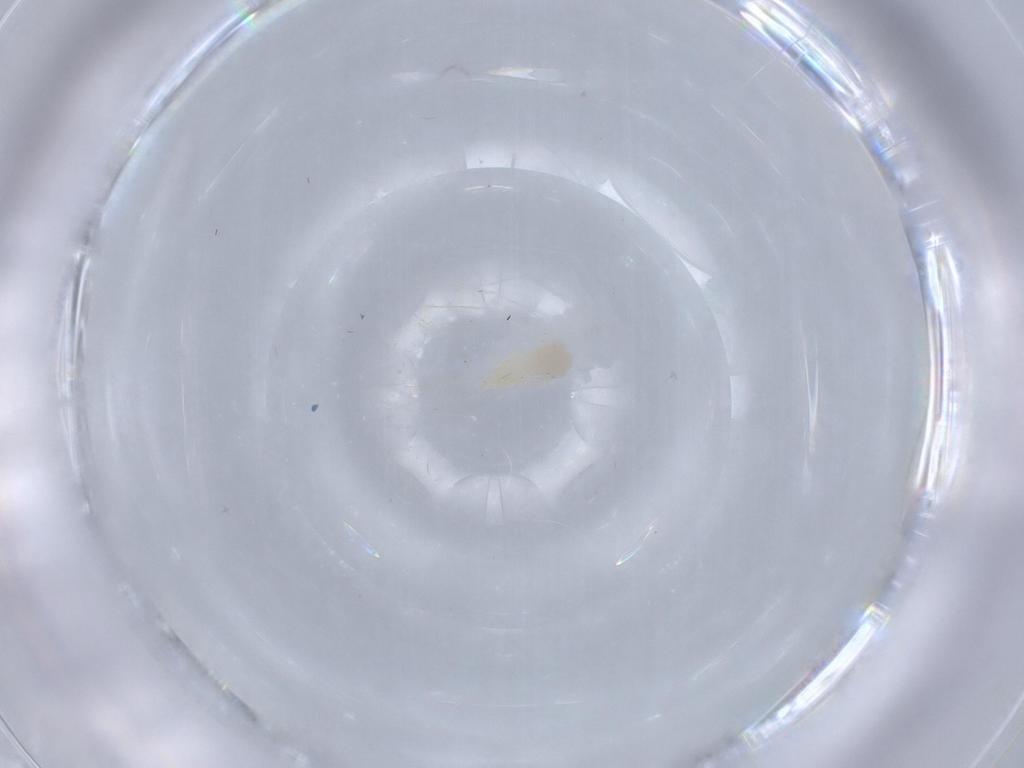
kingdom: Animalia
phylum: Arthropoda
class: Insecta
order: Hemiptera
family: Aleyrodidae
